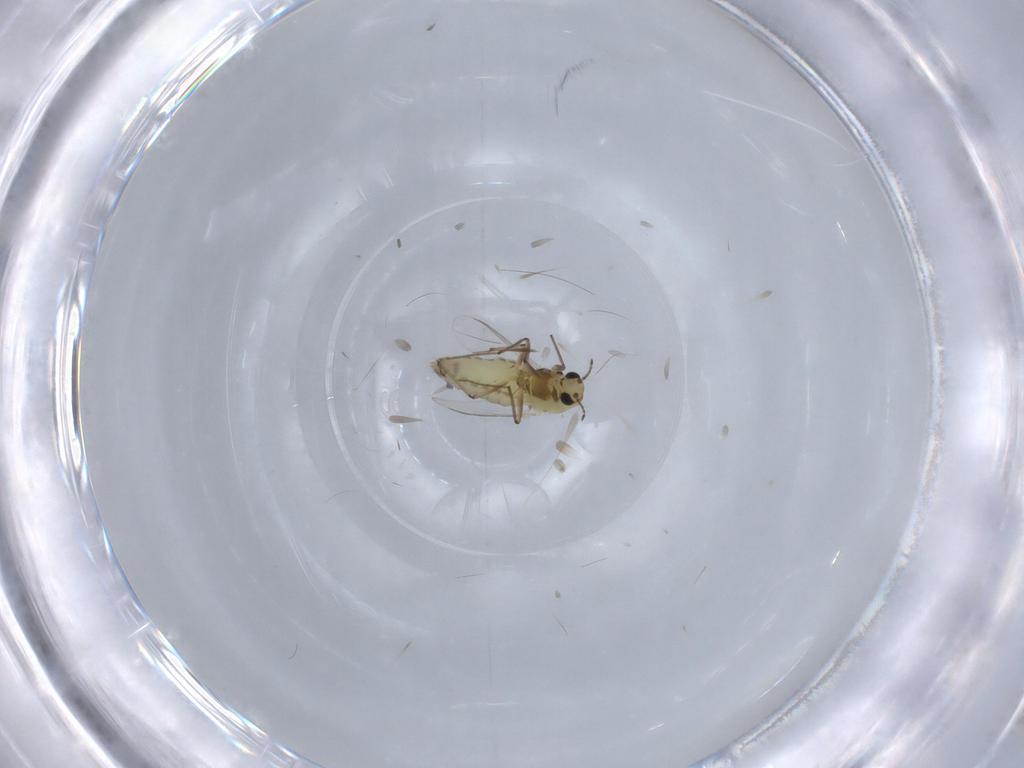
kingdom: Animalia
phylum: Arthropoda
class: Insecta
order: Diptera
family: Chironomidae
